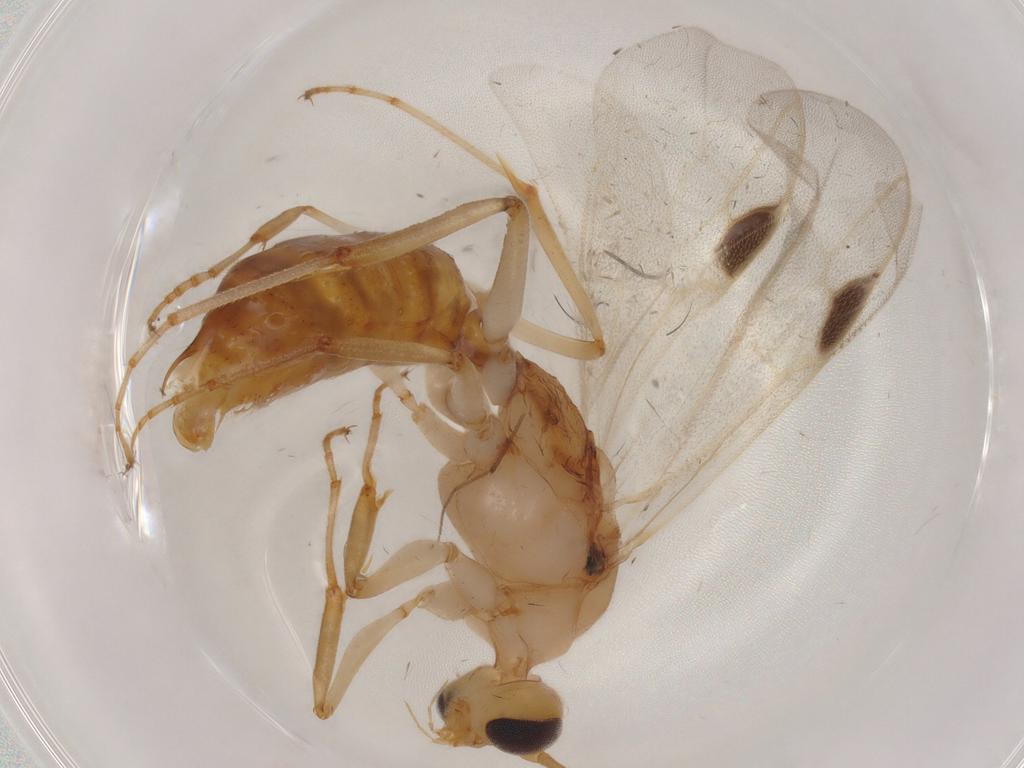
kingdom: Animalia
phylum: Arthropoda
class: Insecta
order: Hymenoptera
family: Formicidae
